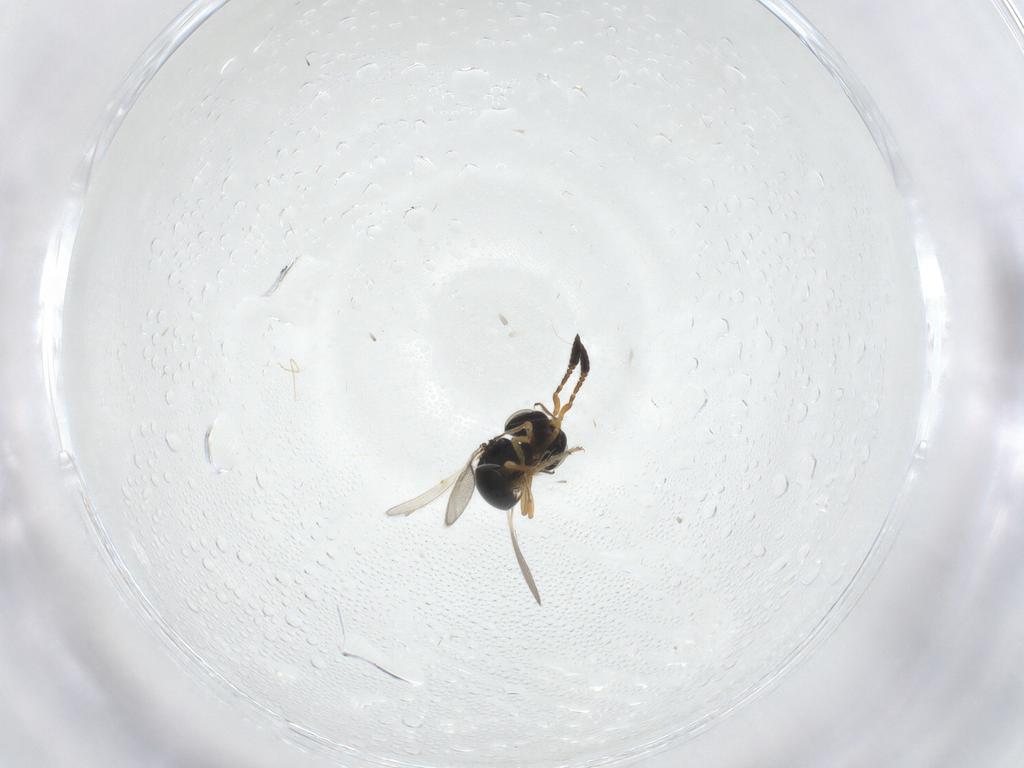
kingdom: Animalia
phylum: Arthropoda
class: Insecta
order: Hymenoptera
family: Scelionidae
